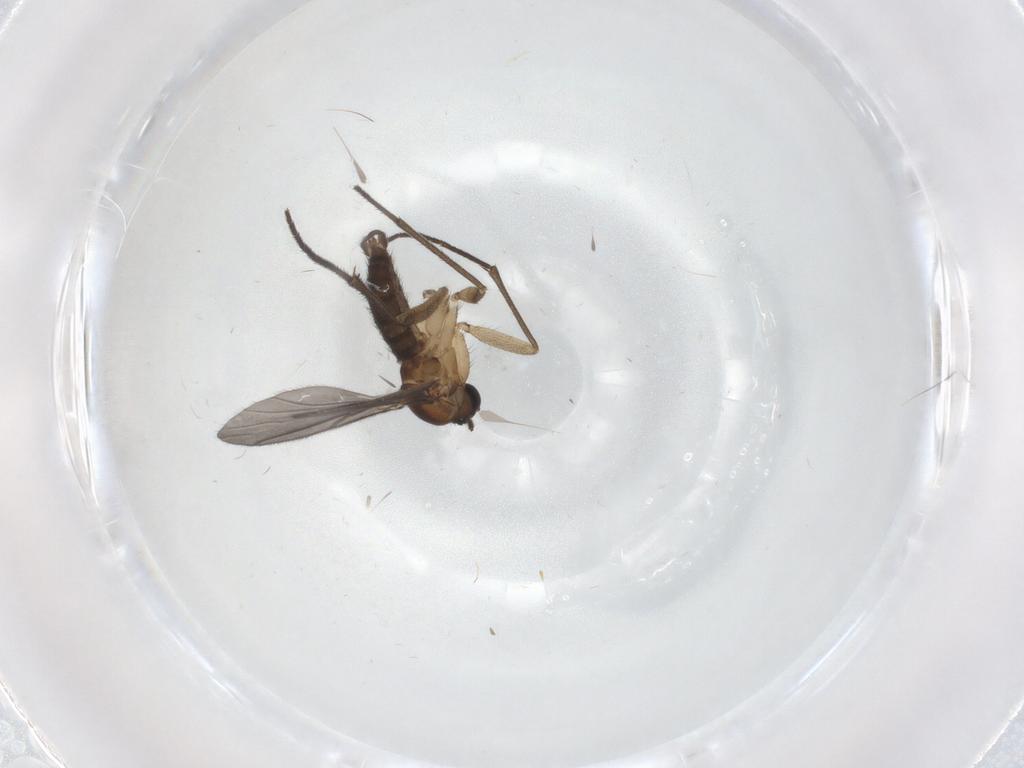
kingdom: Animalia
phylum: Arthropoda
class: Insecta
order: Diptera
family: Sciaridae
